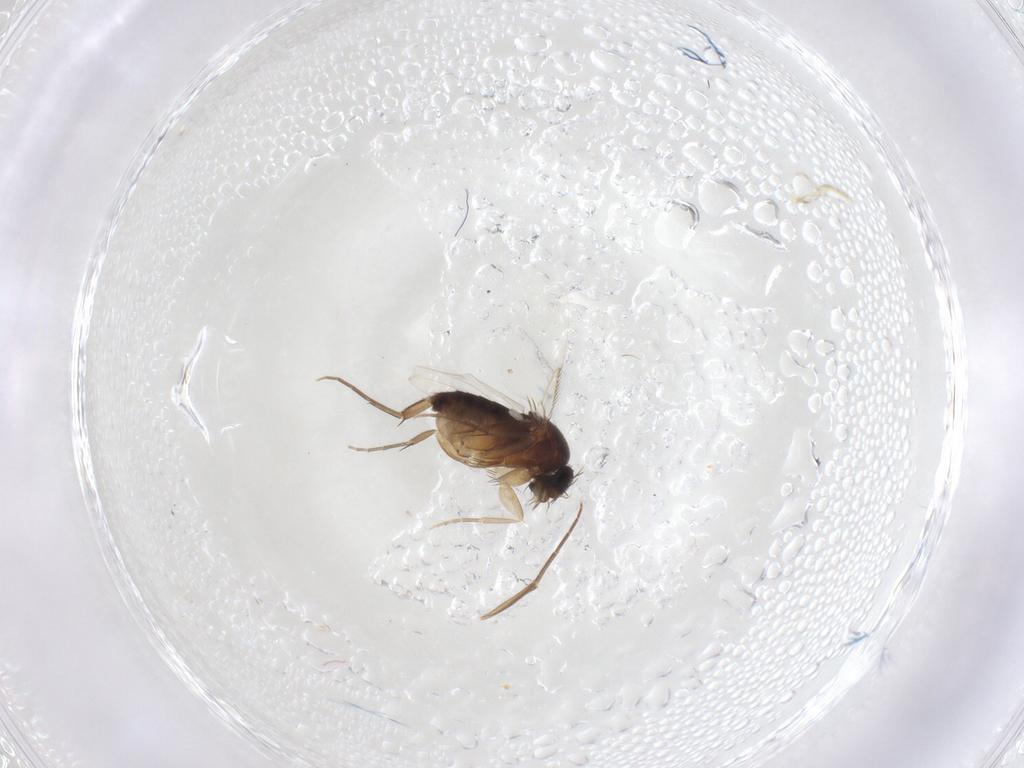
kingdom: Animalia
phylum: Arthropoda
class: Insecta
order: Diptera
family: Phoridae
